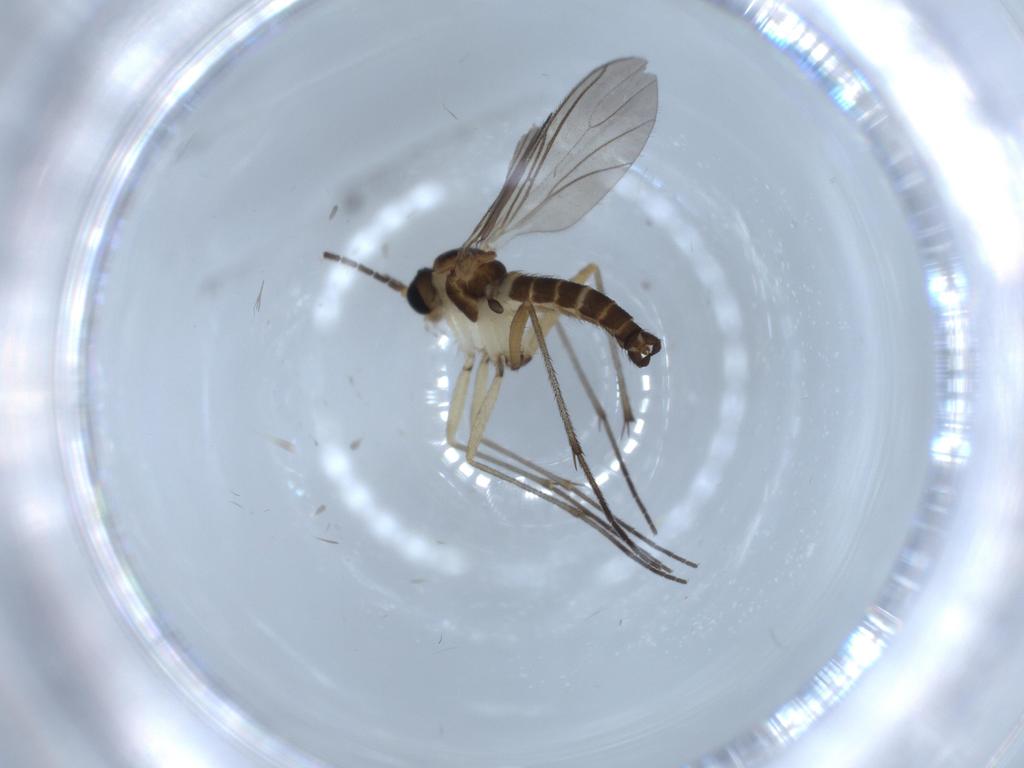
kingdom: Animalia
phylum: Arthropoda
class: Insecta
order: Diptera
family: Sciaridae
